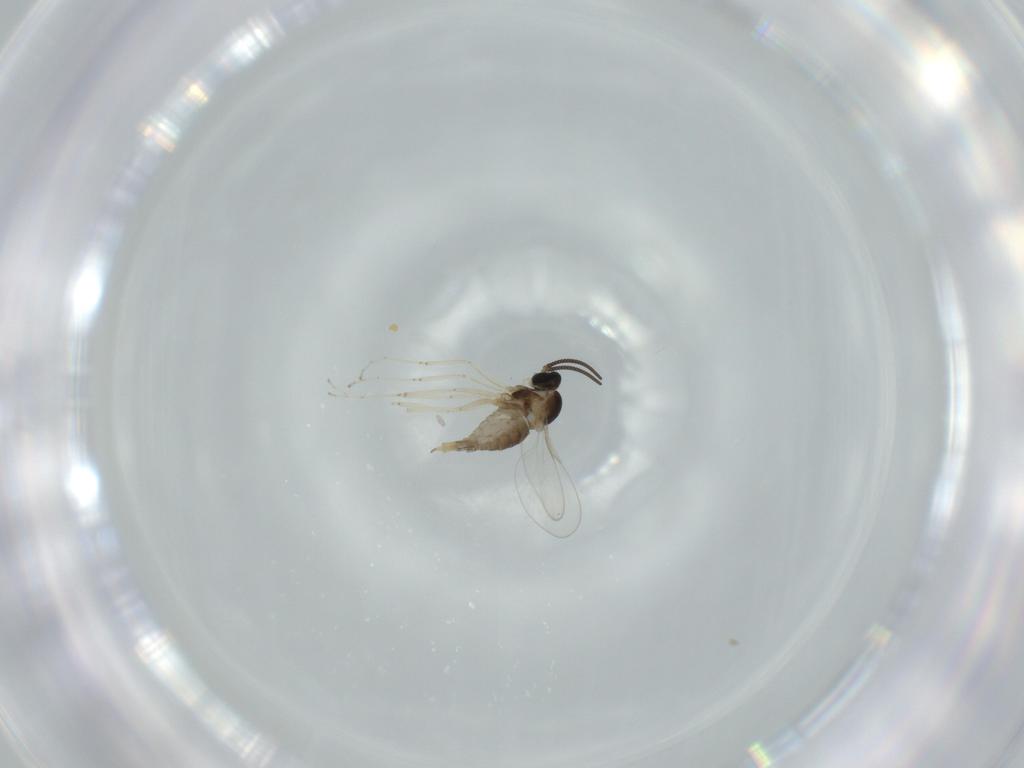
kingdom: Animalia
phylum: Arthropoda
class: Insecta
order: Diptera
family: Cecidomyiidae
